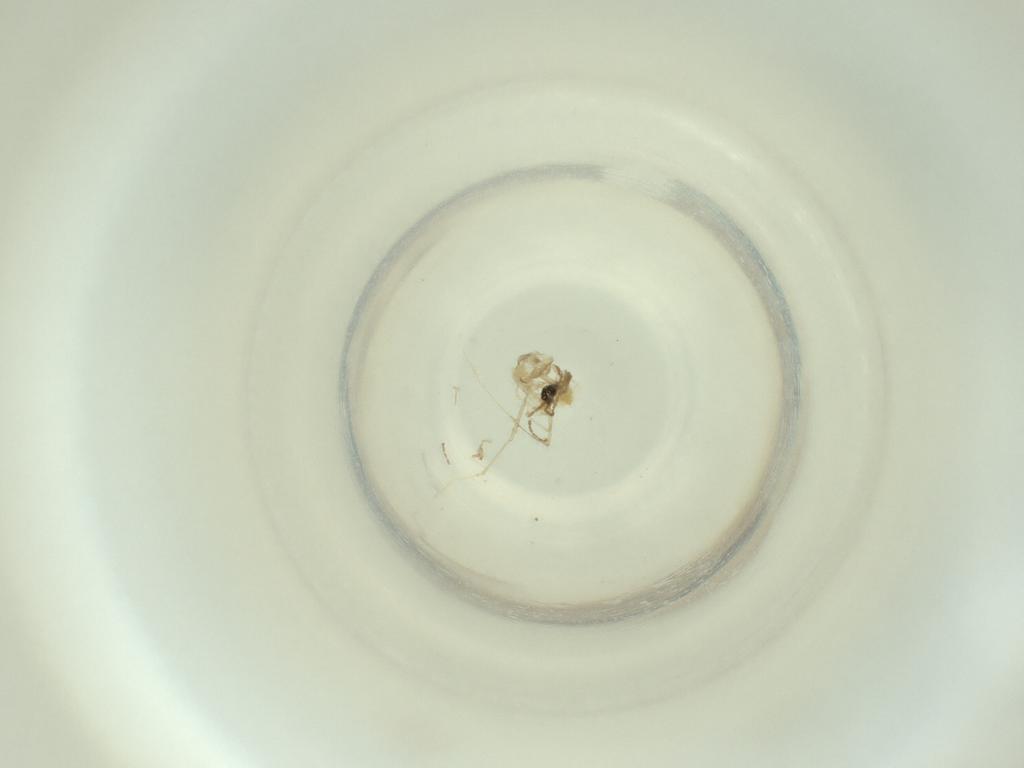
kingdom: Animalia
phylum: Arthropoda
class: Insecta
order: Diptera
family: Cecidomyiidae
